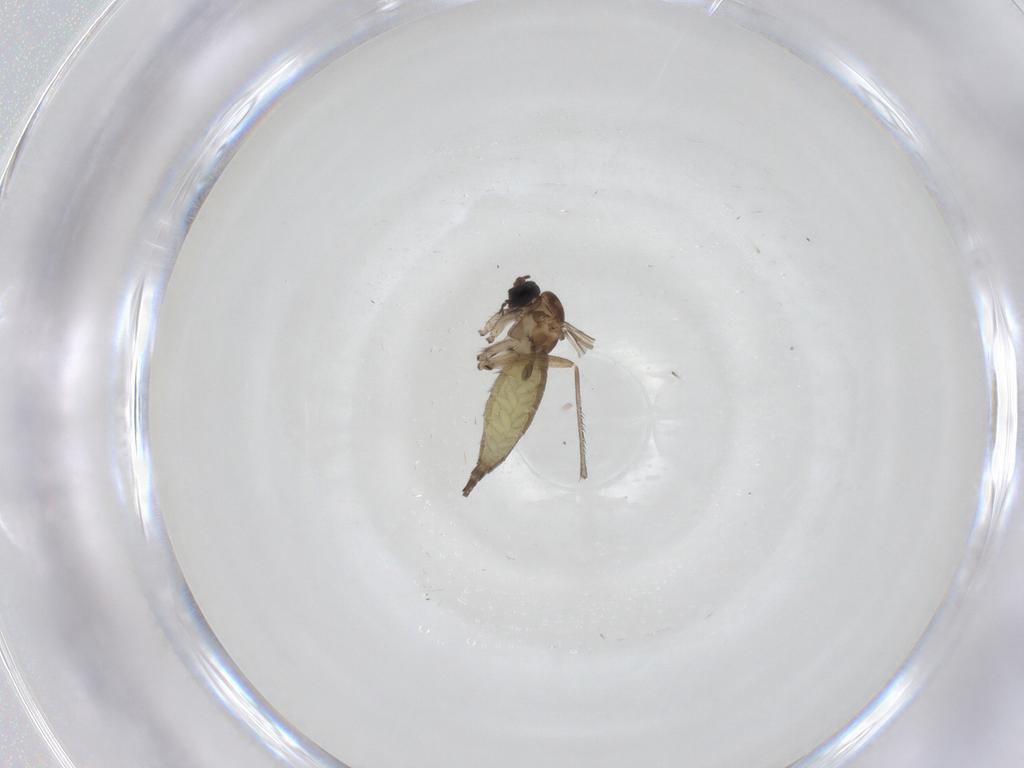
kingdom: Animalia
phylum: Arthropoda
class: Insecta
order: Diptera
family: Sciaridae
